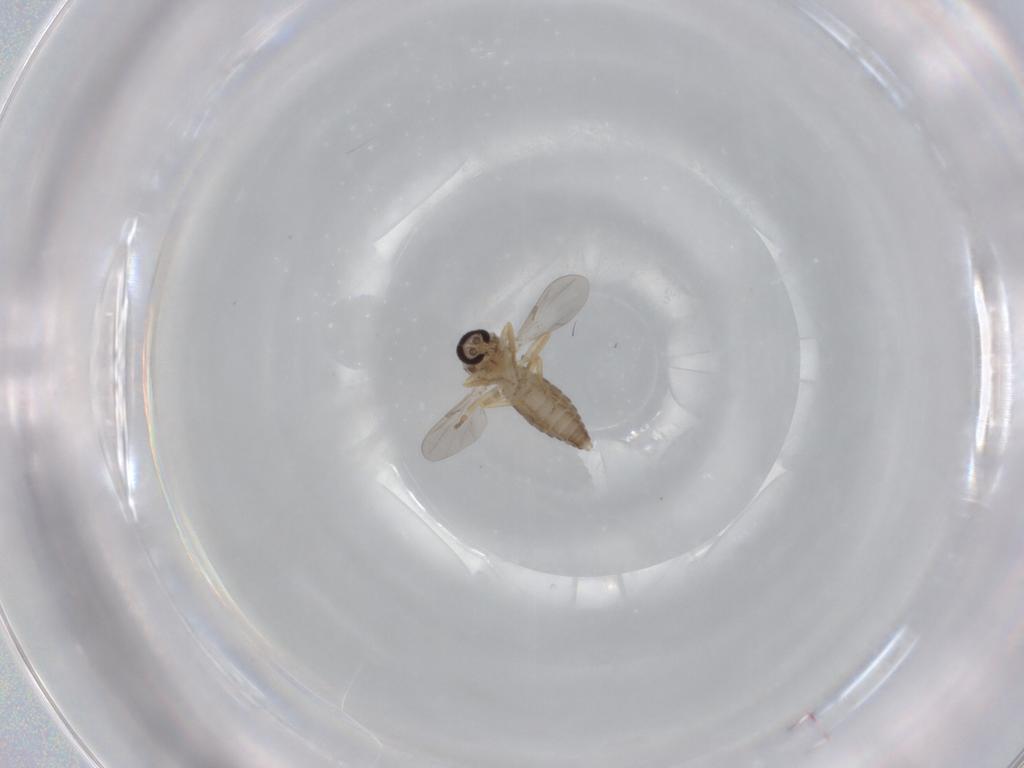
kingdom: Animalia
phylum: Arthropoda
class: Insecta
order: Diptera
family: Ceratopogonidae
